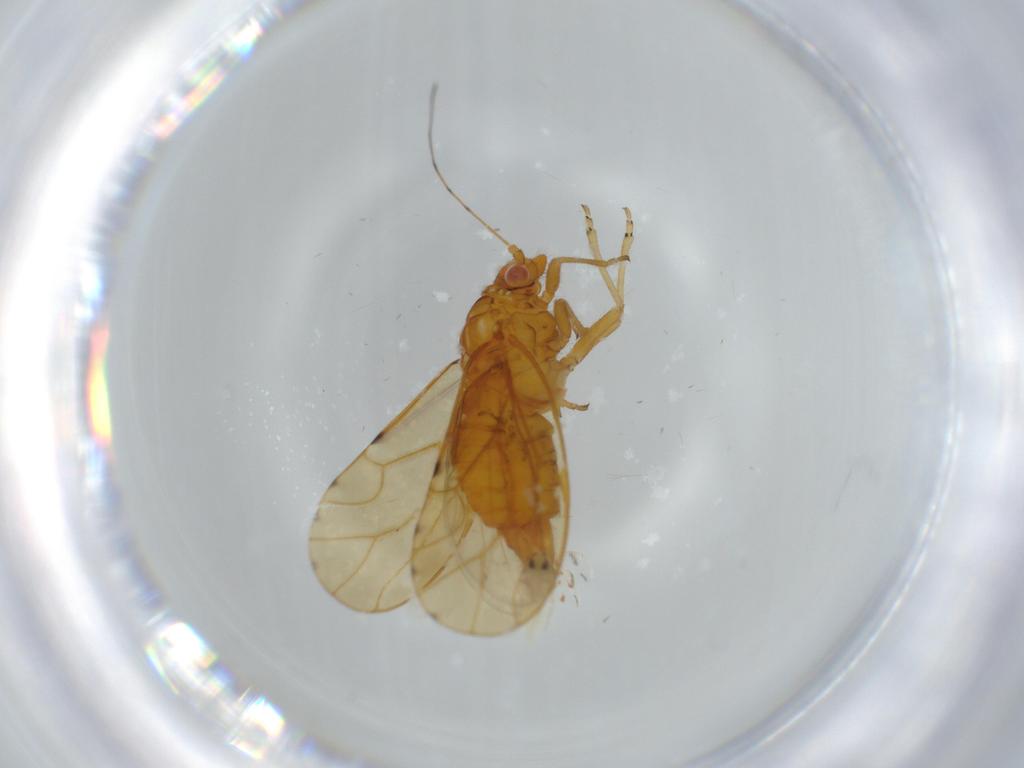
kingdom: Animalia
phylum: Arthropoda
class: Insecta
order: Hemiptera
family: Aleyrodidae
